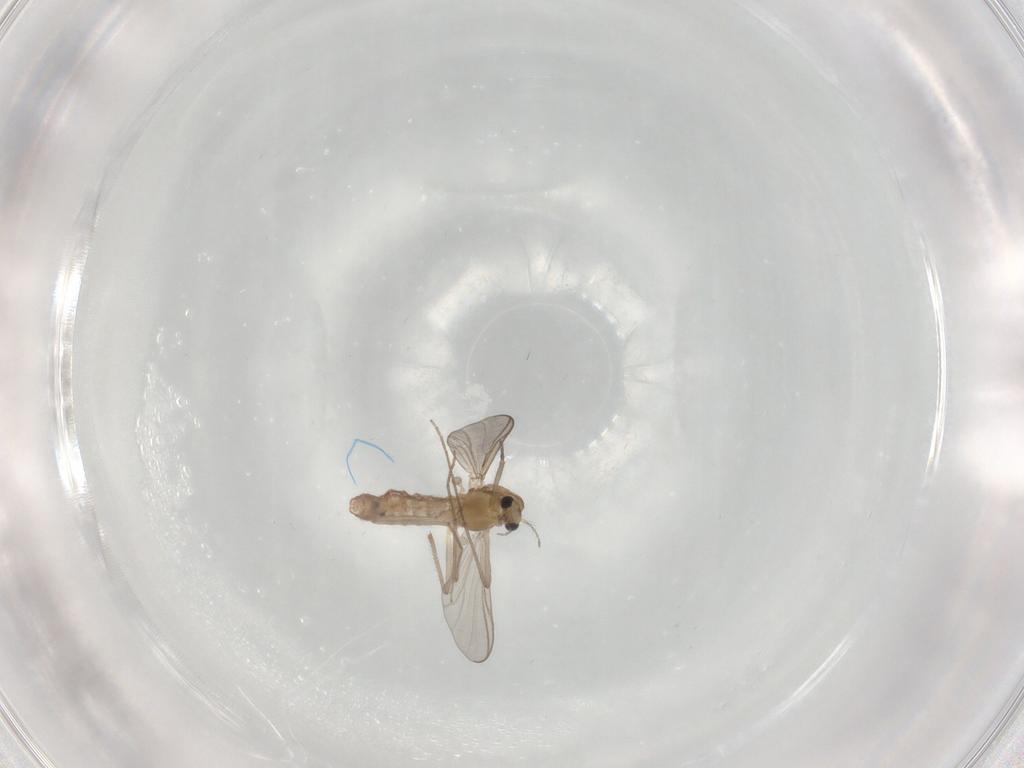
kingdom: Animalia
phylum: Arthropoda
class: Insecta
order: Diptera
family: Chironomidae
